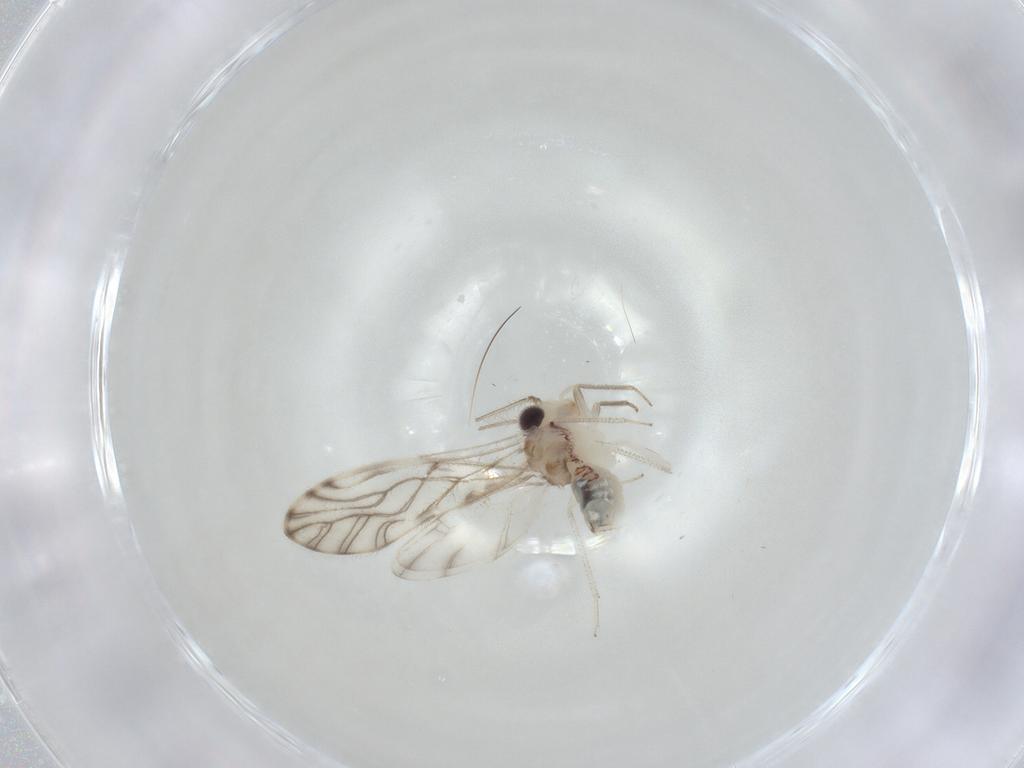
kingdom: Animalia
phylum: Arthropoda
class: Insecta
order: Psocodea
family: Philotarsidae
